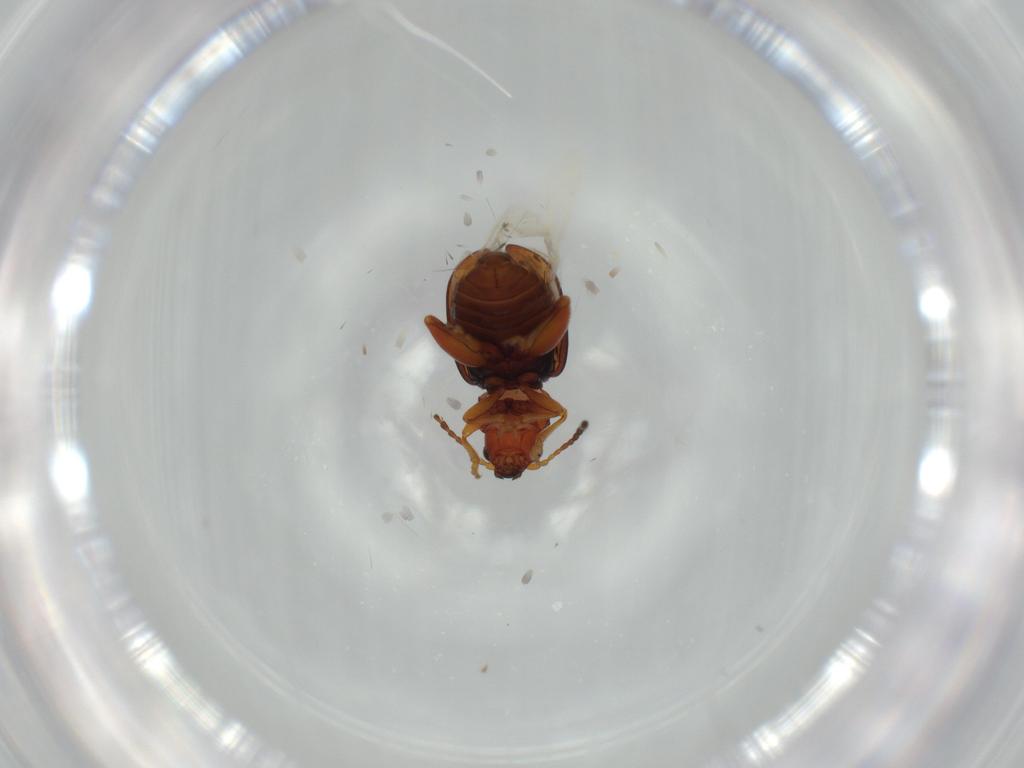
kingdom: Animalia
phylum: Arthropoda
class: Insecta
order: Coleoptera
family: Chrysomelidae
